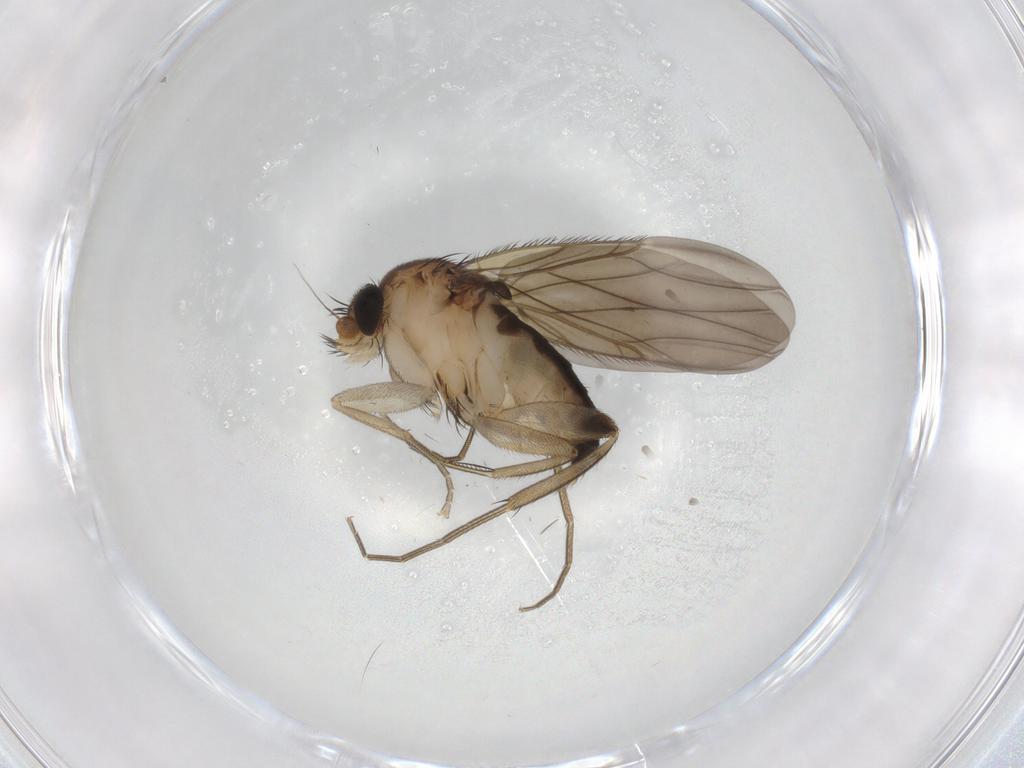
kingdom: Animalia
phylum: Arthropoda
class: Insecta
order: Diptera
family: Phoridae
